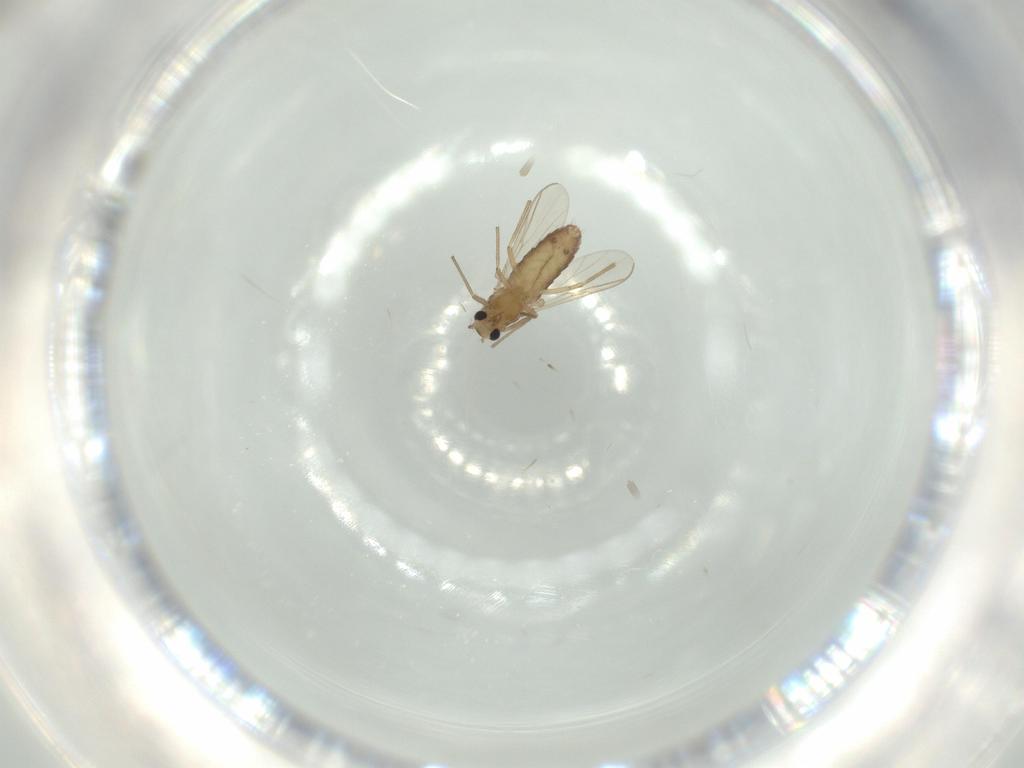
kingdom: Animalia
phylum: Arthropoda
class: Insecta
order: Diptera
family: Chironomidae
